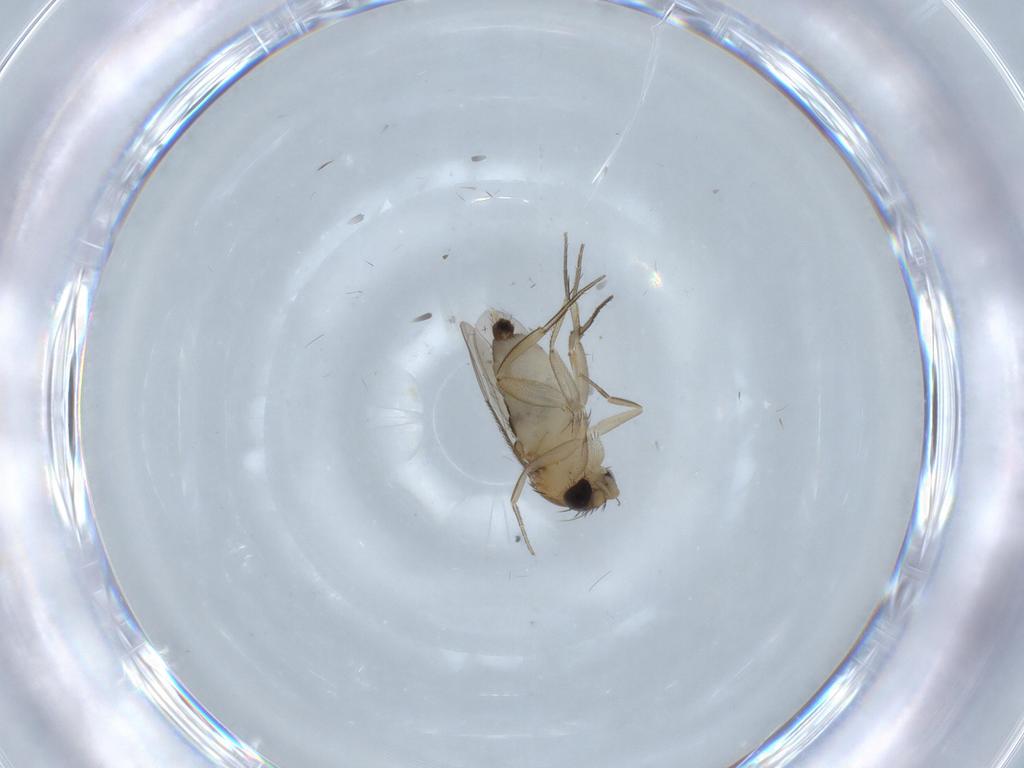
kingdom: Animalia
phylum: Arthropoda
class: Insecta
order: Diptera
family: Phoridae
